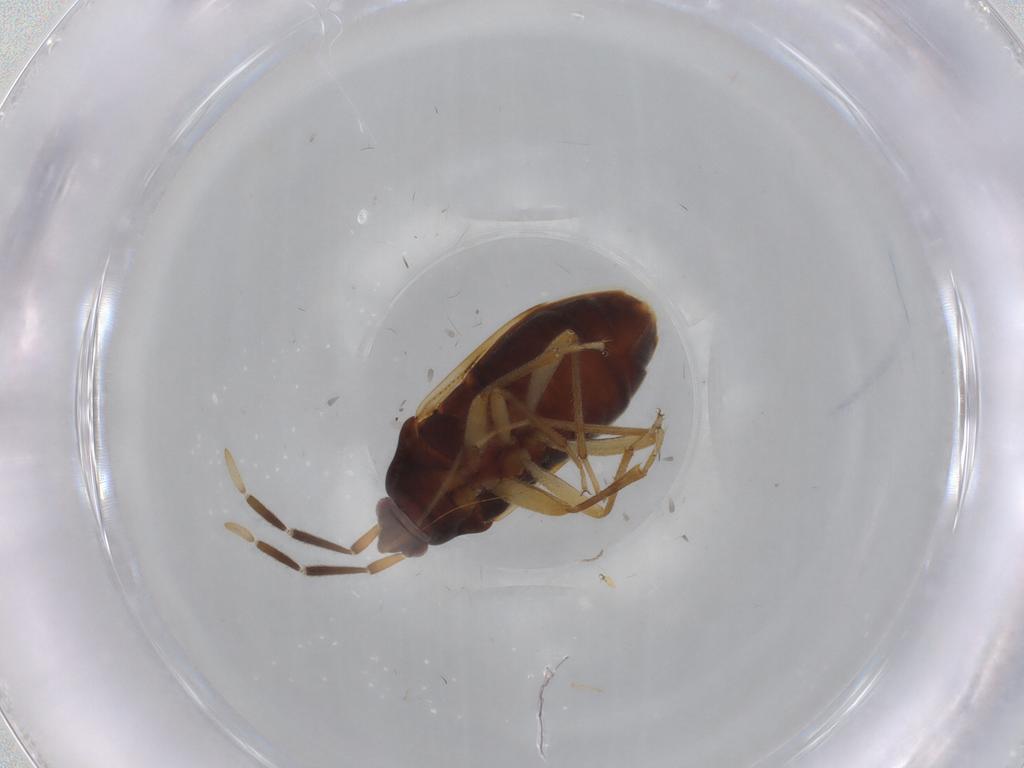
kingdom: Animalia
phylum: Arthropoda
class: Insecta
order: Hemiptera
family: Rhyparochromidae
